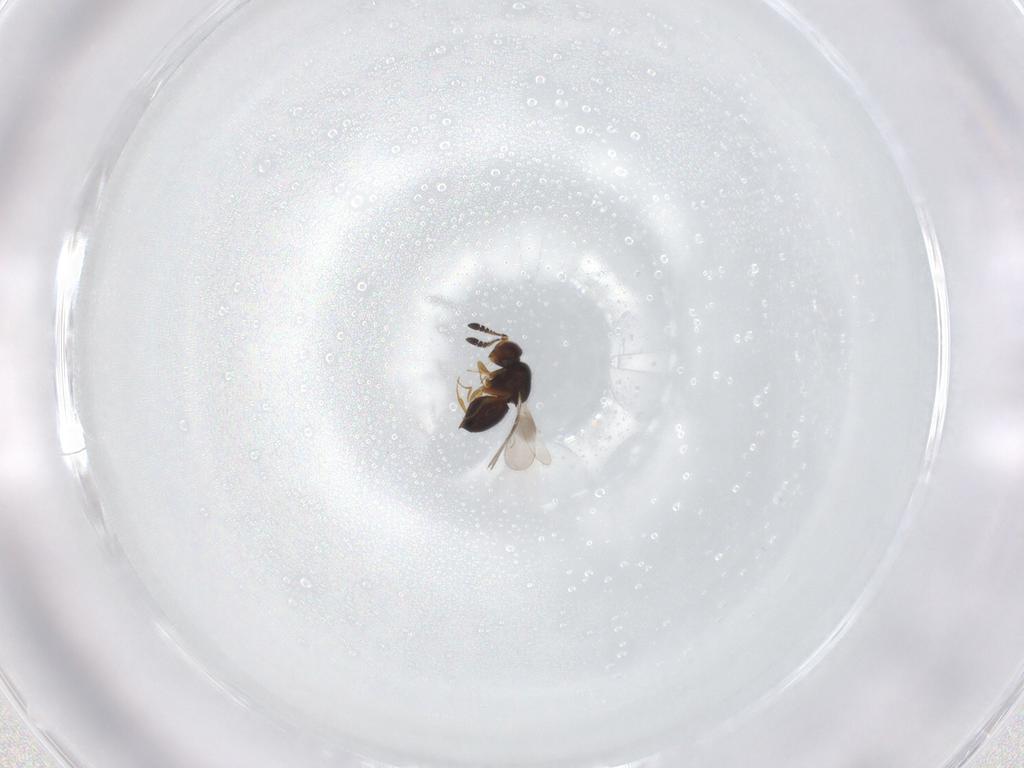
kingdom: Animalia
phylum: Arthropoda
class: Insecta
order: Hymenoptera
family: Ceraphronidae
